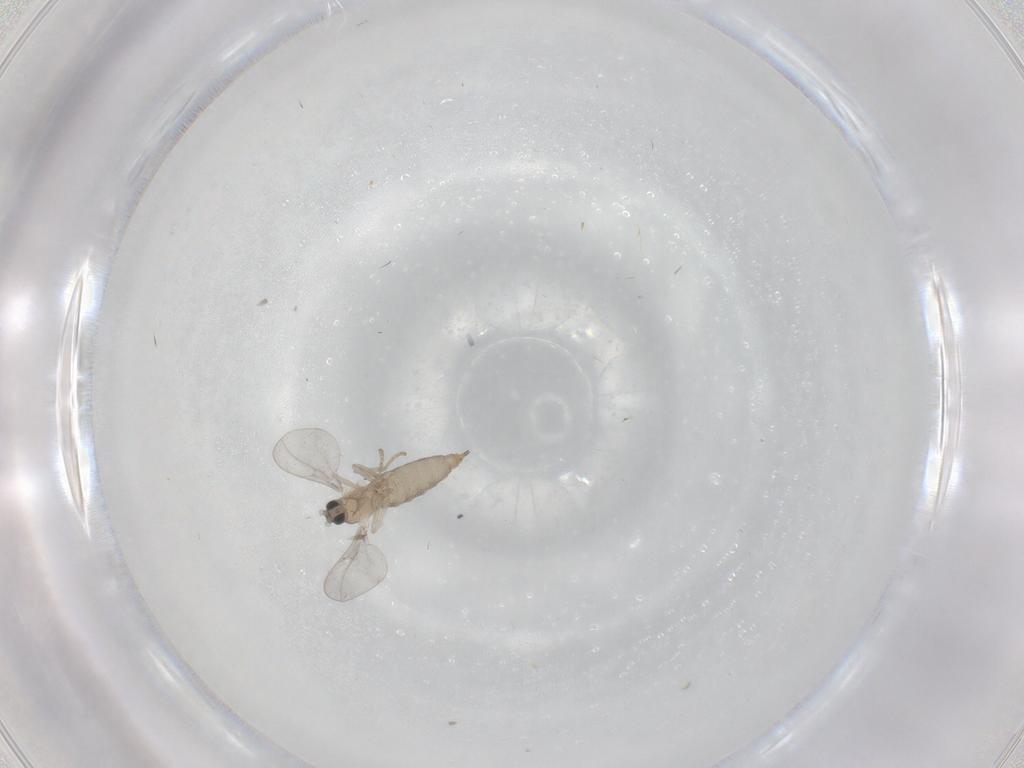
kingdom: Animalia
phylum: Arthropoda
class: Insecta
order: Diptera
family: Cecidomyiidae
